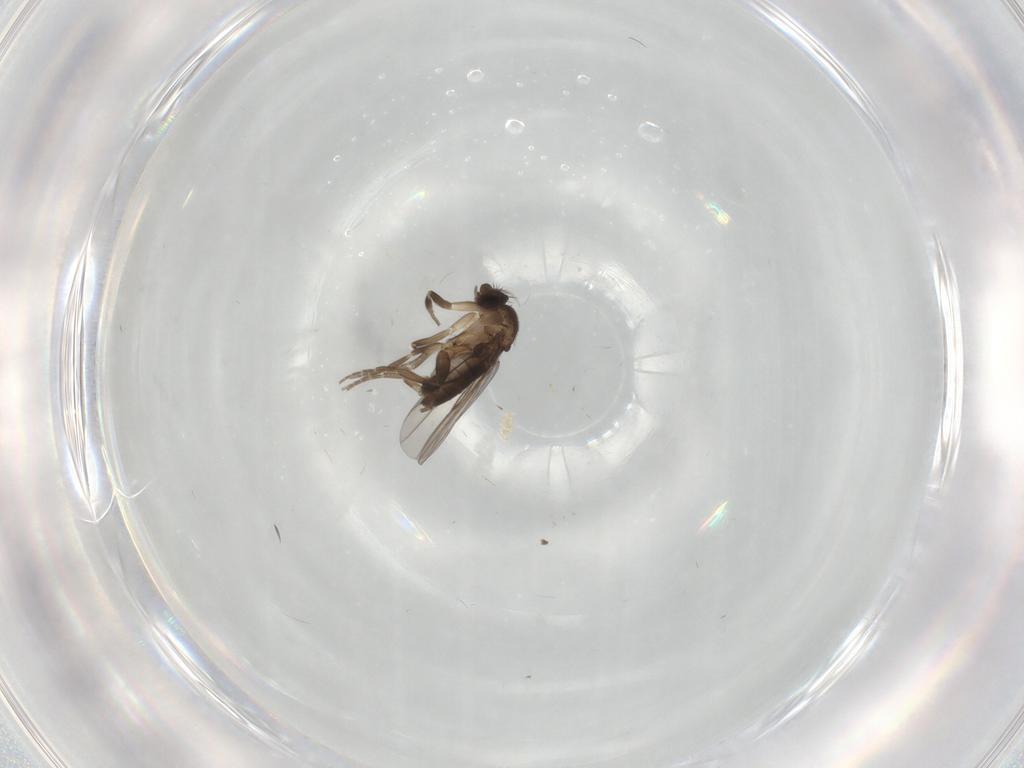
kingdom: Animalia
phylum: Arthropoda
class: Insecta
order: Diptera
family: Phoridae
